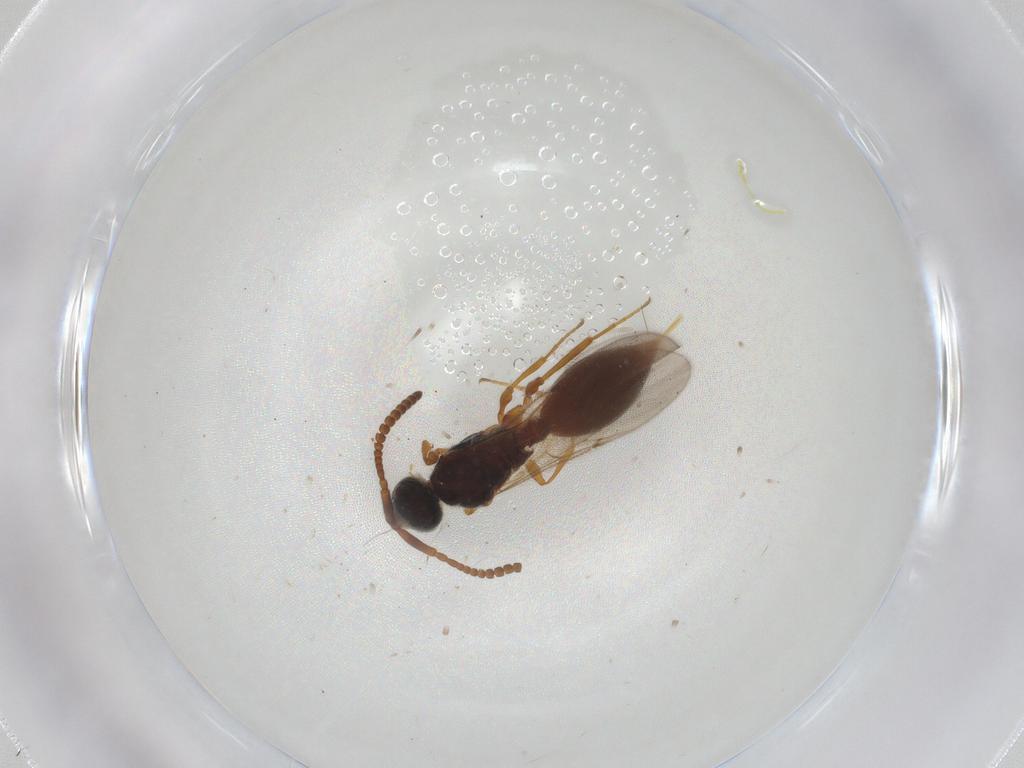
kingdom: Animalia
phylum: Arthropoda
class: Insecta
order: Hymenoptera
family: Diapriidae
